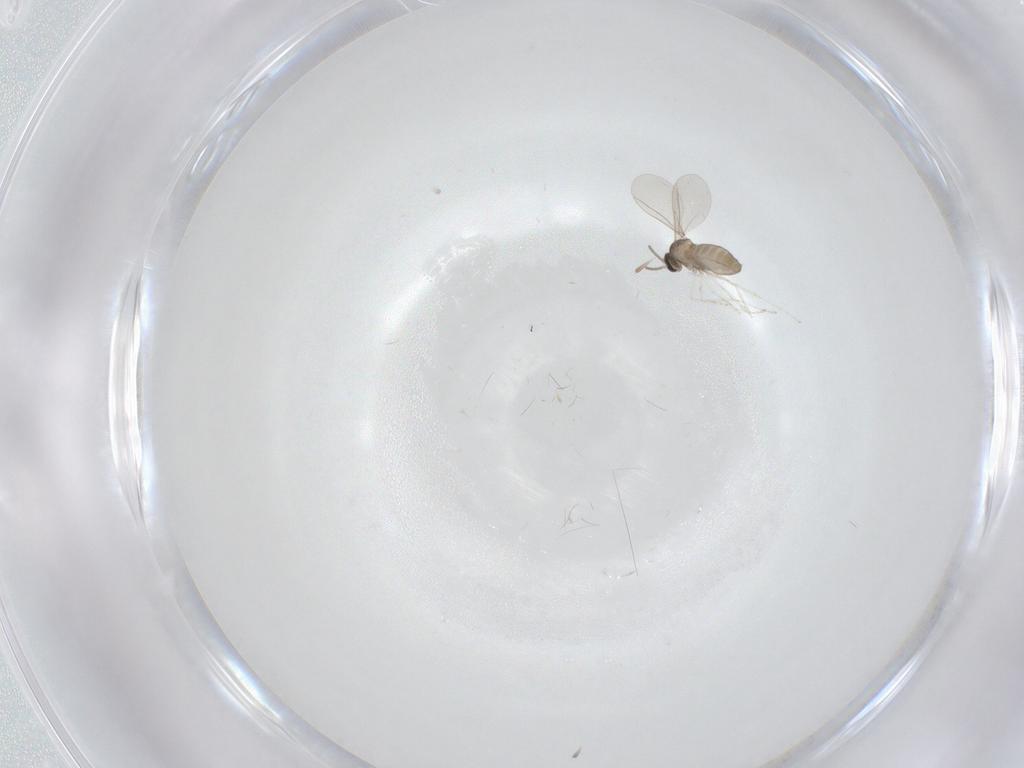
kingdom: Animalia
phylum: Arthropoda
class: Insecta
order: Diptera
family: Cecidomyiidae
